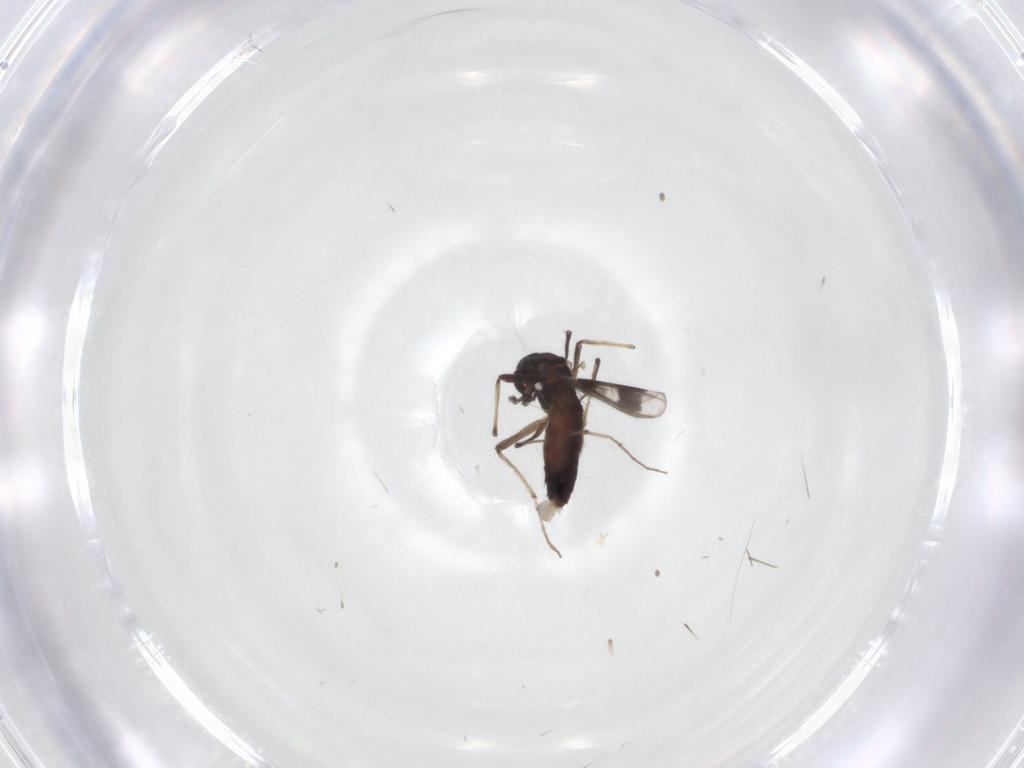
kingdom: Animalia
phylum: Arthropoda
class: Insecta
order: Diptera
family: Chironomidae
